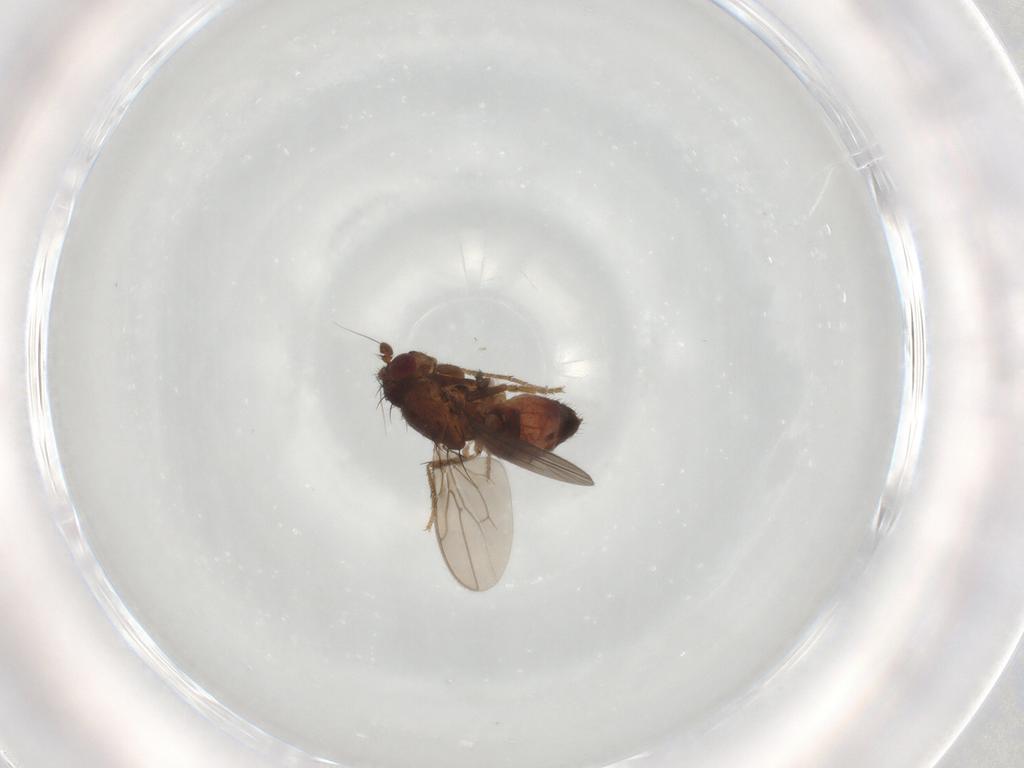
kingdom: Animalia
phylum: Arthropoda
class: Insecta
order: Diptera
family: Sphaeroceridae
